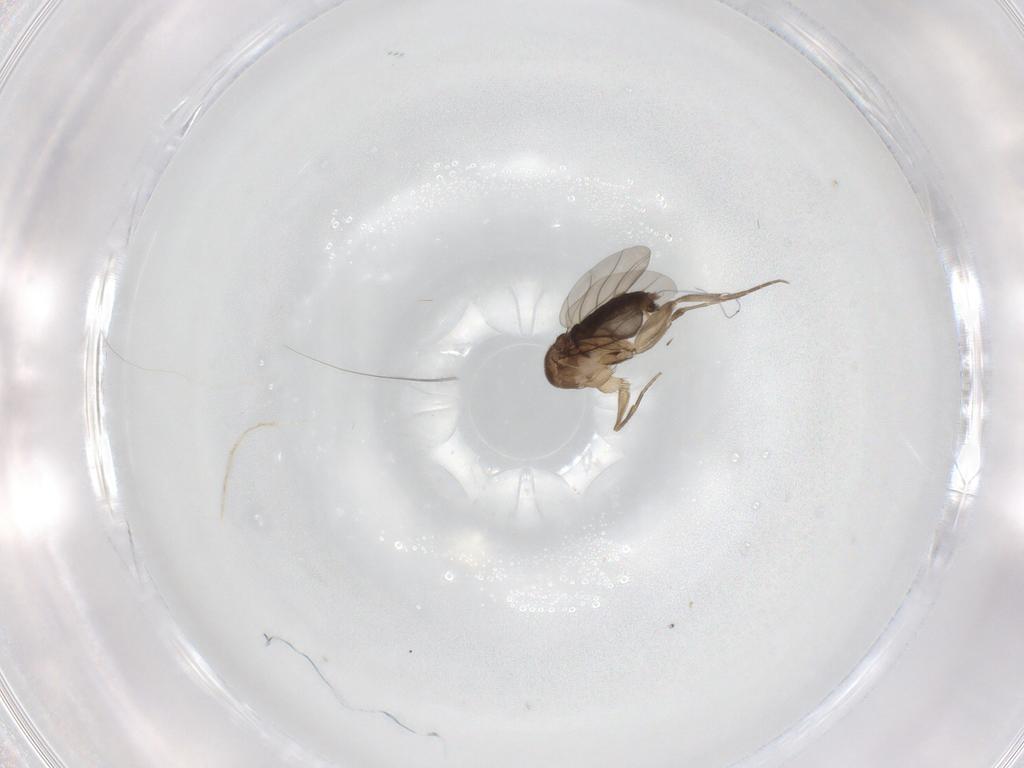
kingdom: Animalia
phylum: Arthropoda
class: Insecta
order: Diptera
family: Phoridae
